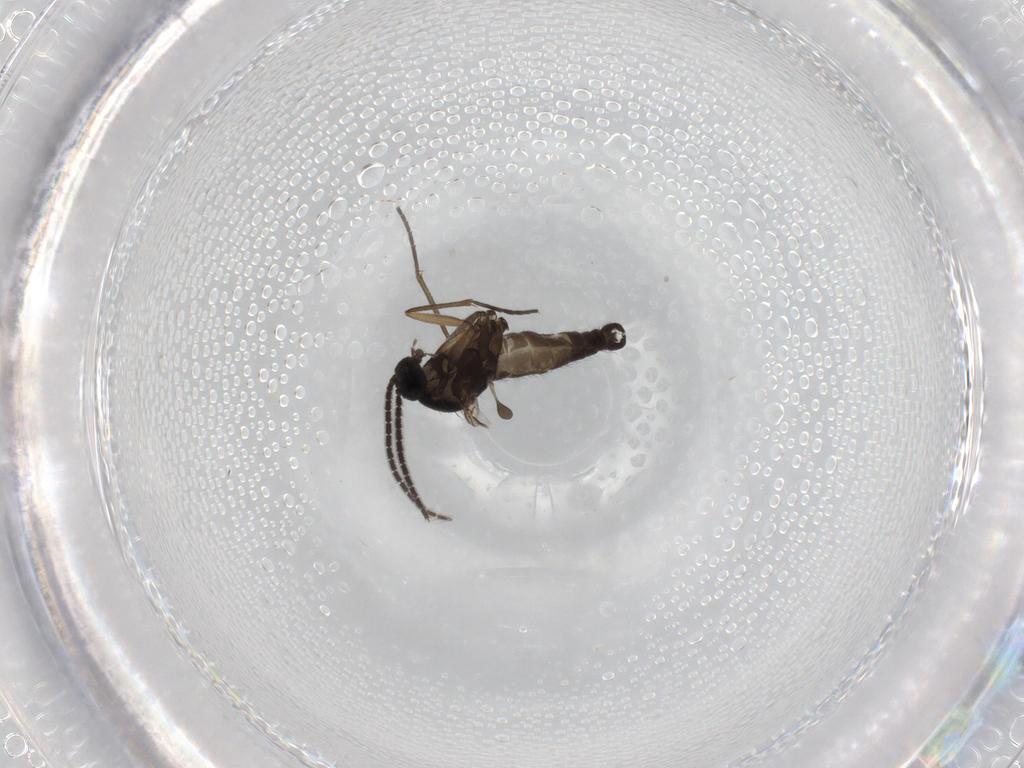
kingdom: Animalia
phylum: Arthropoda
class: Insecta
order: Diptera
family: Sciaridae
